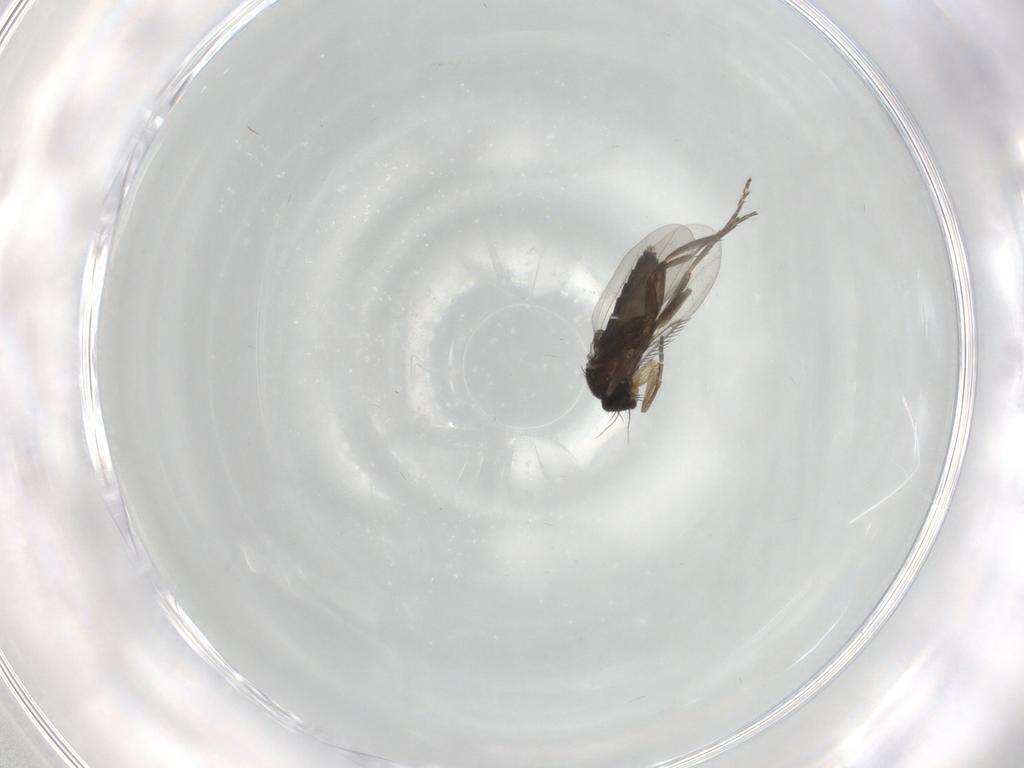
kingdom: Animalia
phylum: Arthropoda
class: Insecta
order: Diptera
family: Phoridae
